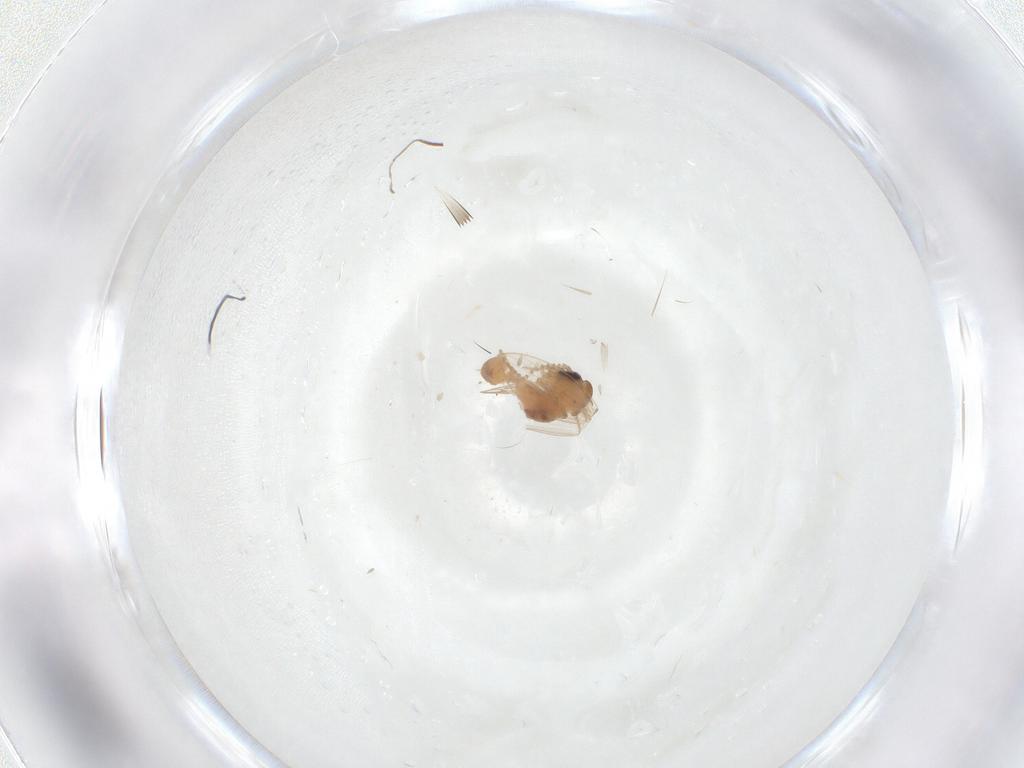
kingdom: Animalia
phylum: Arthropoda
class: Insecta
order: Diptera
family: Psychodidae
